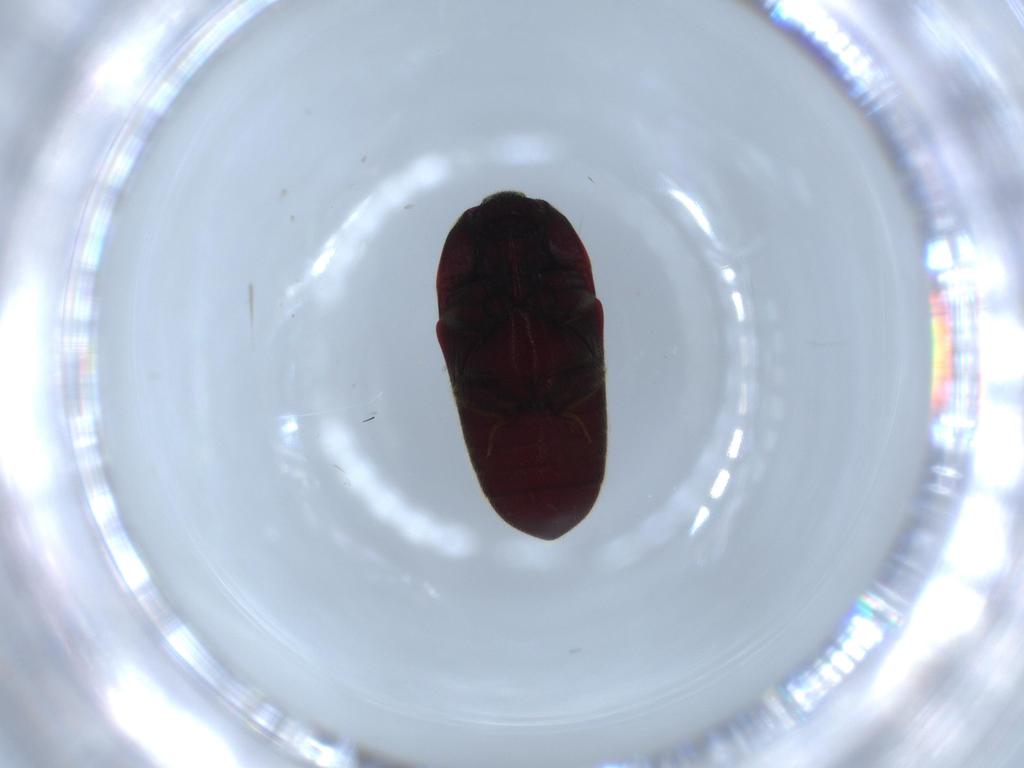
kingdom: Animalia
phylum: Arthropoda
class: Insecta
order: Coleoptera
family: Throscidae
